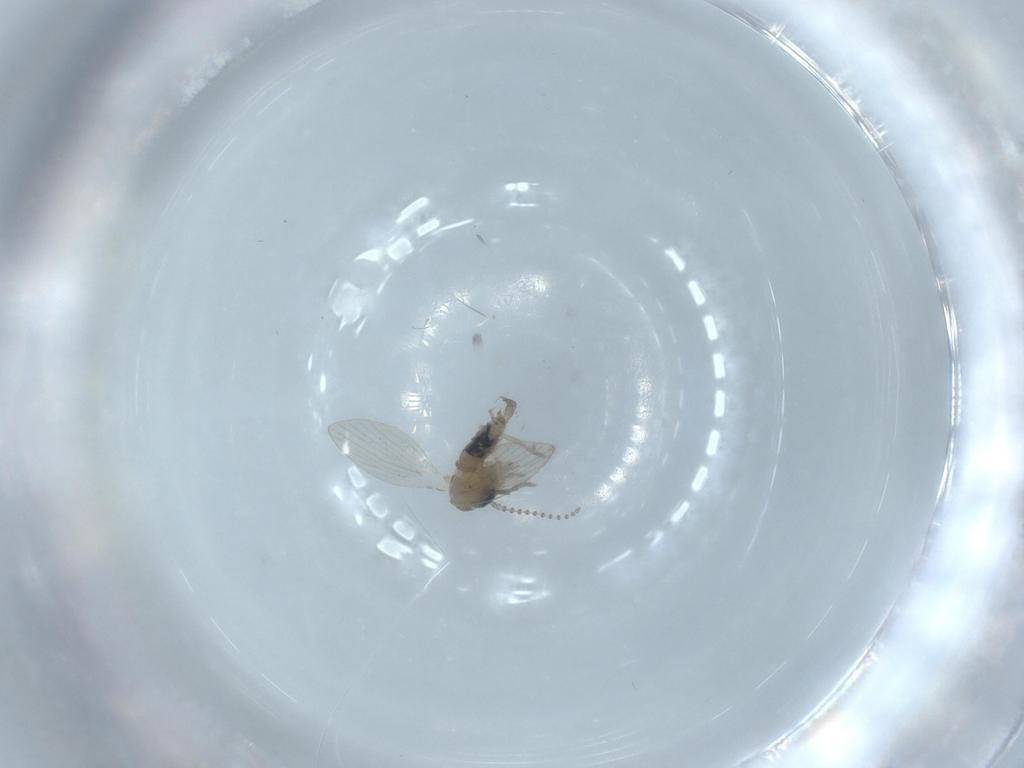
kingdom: Animalia
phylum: Arthropoda
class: Insecta
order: Diptera
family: Psychodidae
